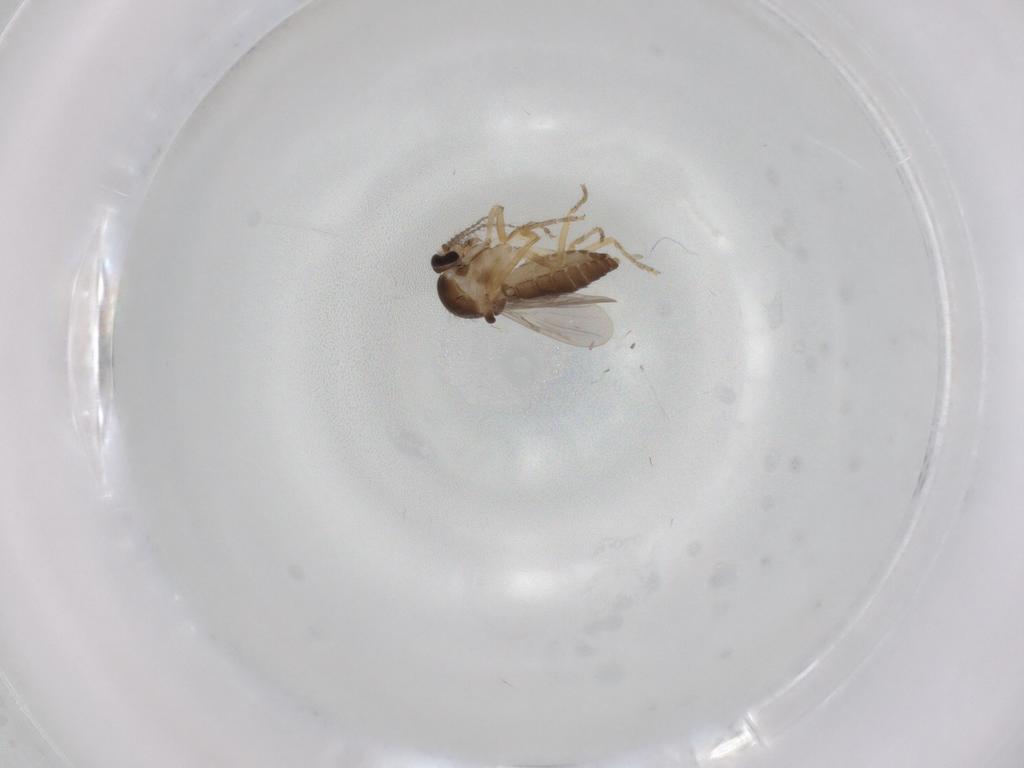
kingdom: Animalia
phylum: Arthropoda
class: Insecta
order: Diptera
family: Ceratopogonidae
